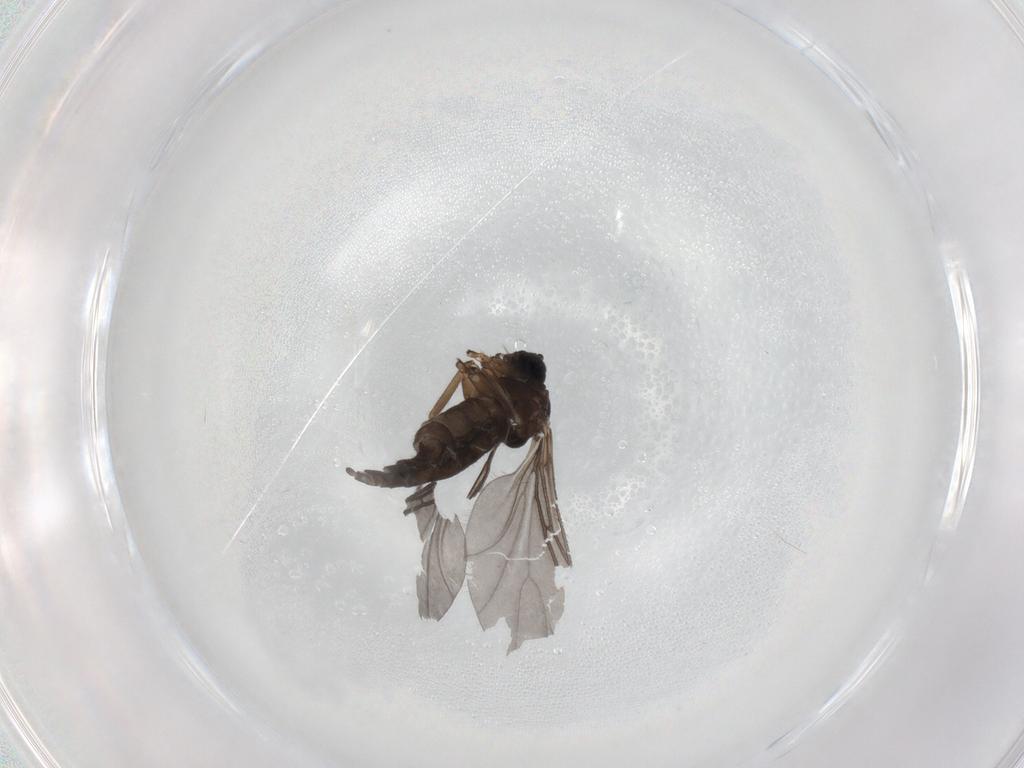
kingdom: Animalia
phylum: Arthropoda
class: Insecta
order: Diptera
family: Sciaridae
